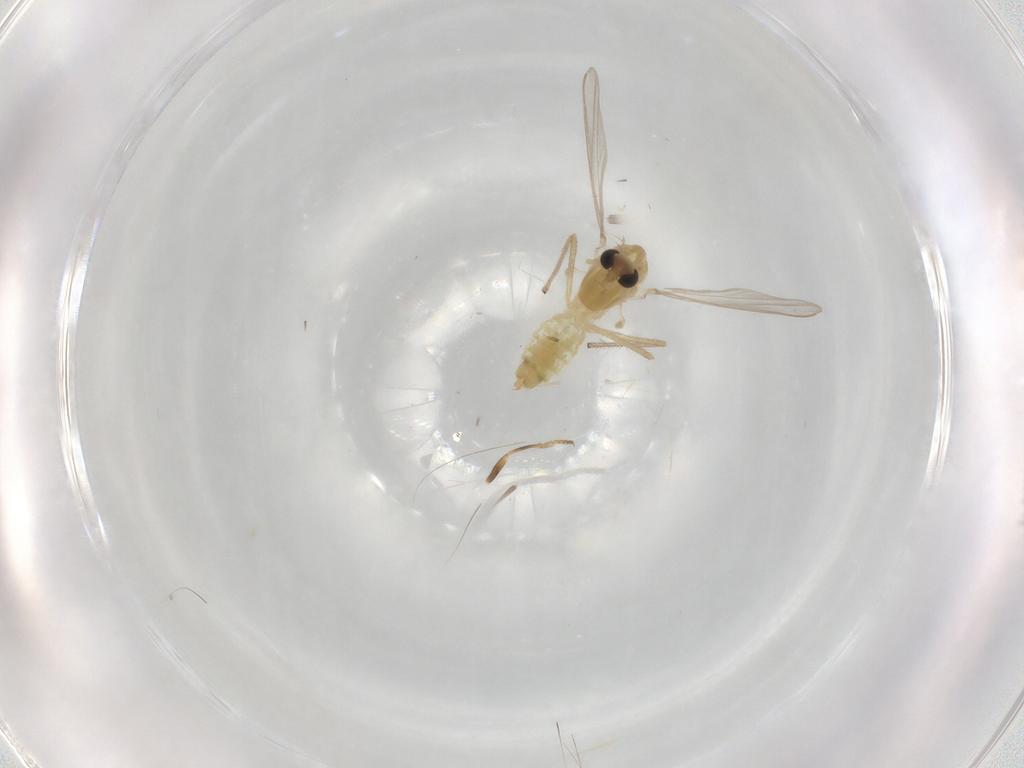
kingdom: Animalia
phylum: Arthropoda
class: Insecta
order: Diptera
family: Chironomidae
